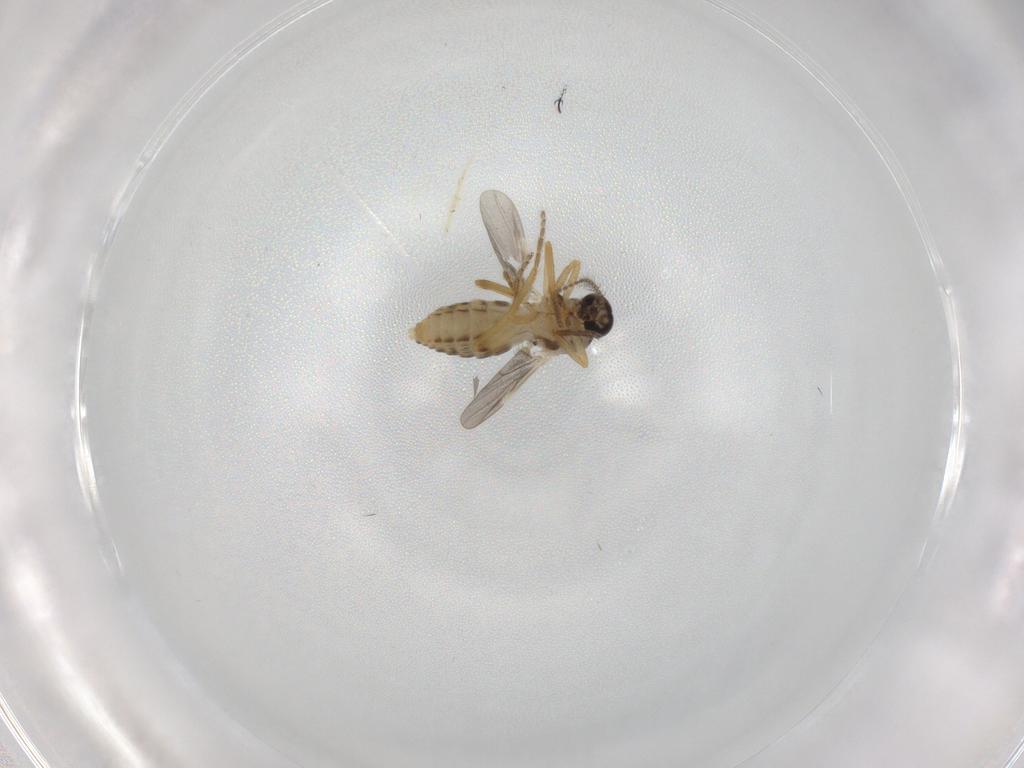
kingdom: Animalia
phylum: Arthropoda
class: Insecta
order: Diptera
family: Ceratopogonidae
